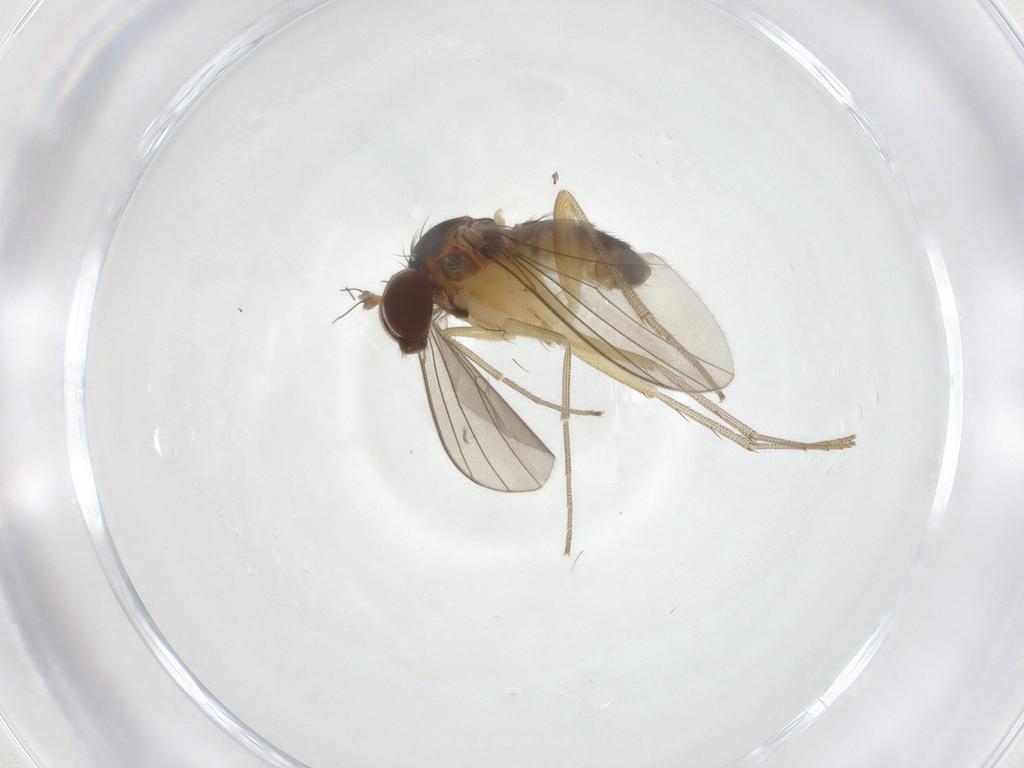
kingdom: Animalia
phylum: Arthropoda
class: Insecta
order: Diptera
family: Dolichopodidae
